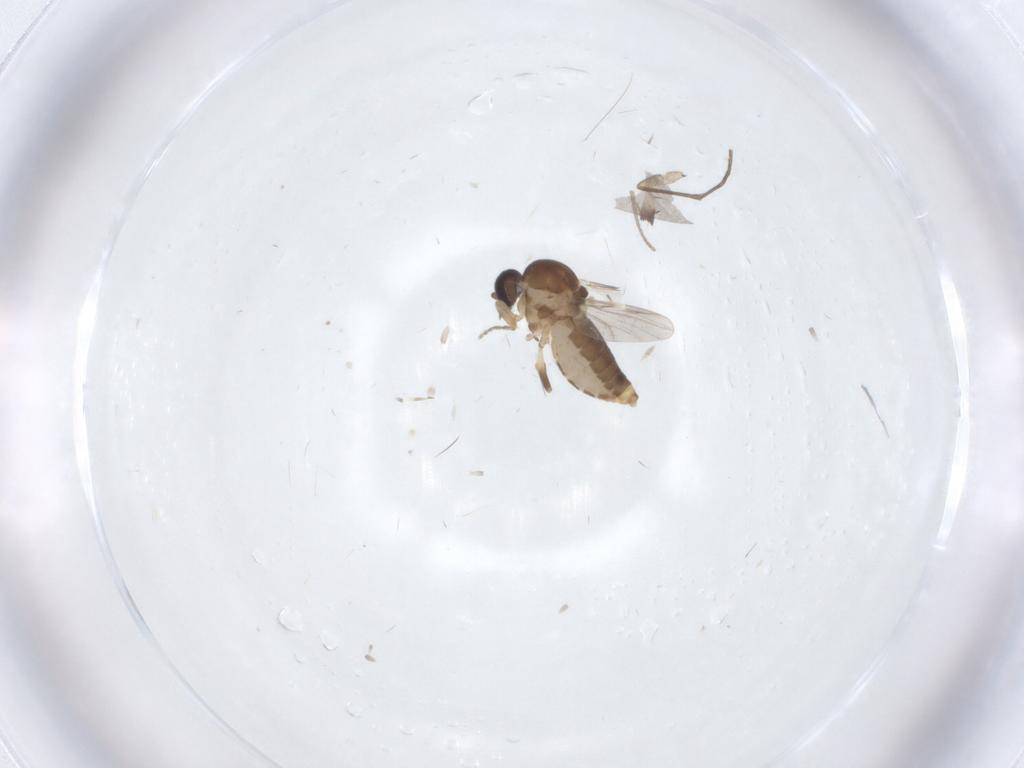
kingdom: Animalia
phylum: Arthropoda
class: Insecta
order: Diptera
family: Ceratopogonidae
